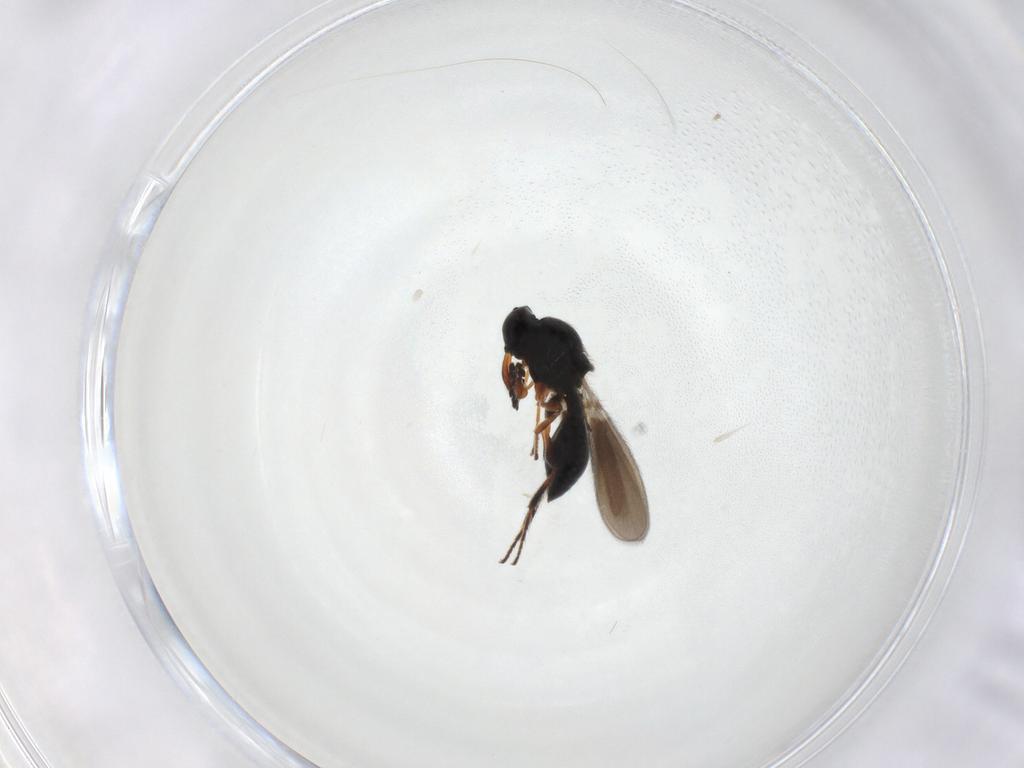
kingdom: Animalia
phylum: Arthropoda
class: Insecta
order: Hymenoptera
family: Platygastridae
